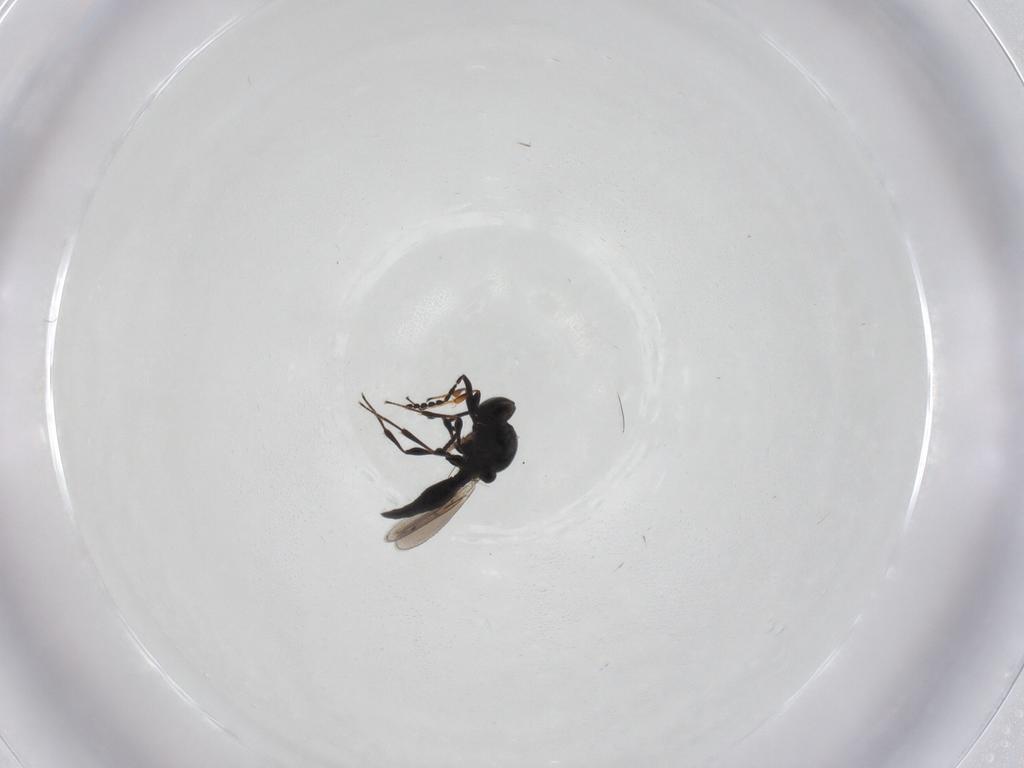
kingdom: Animalia
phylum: Arthropoda
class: Insecta
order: Hymenoptera
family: Platygastridae
